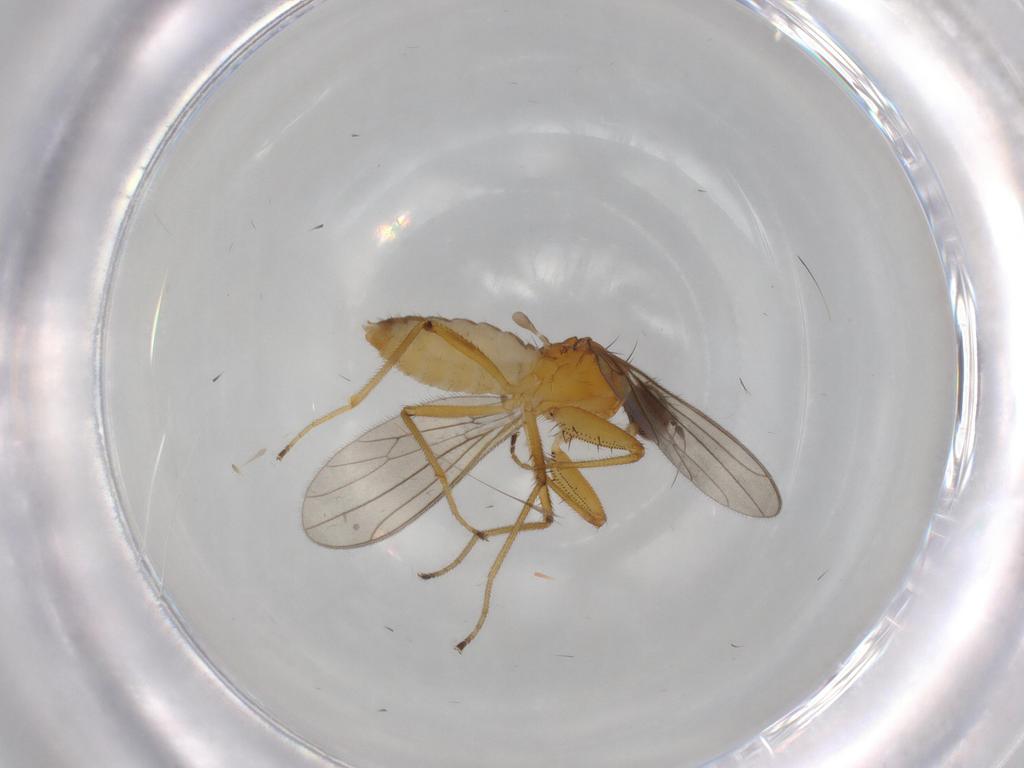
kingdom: Animalia
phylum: Arthropoda
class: Insecta
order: Diptera
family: Empididae
